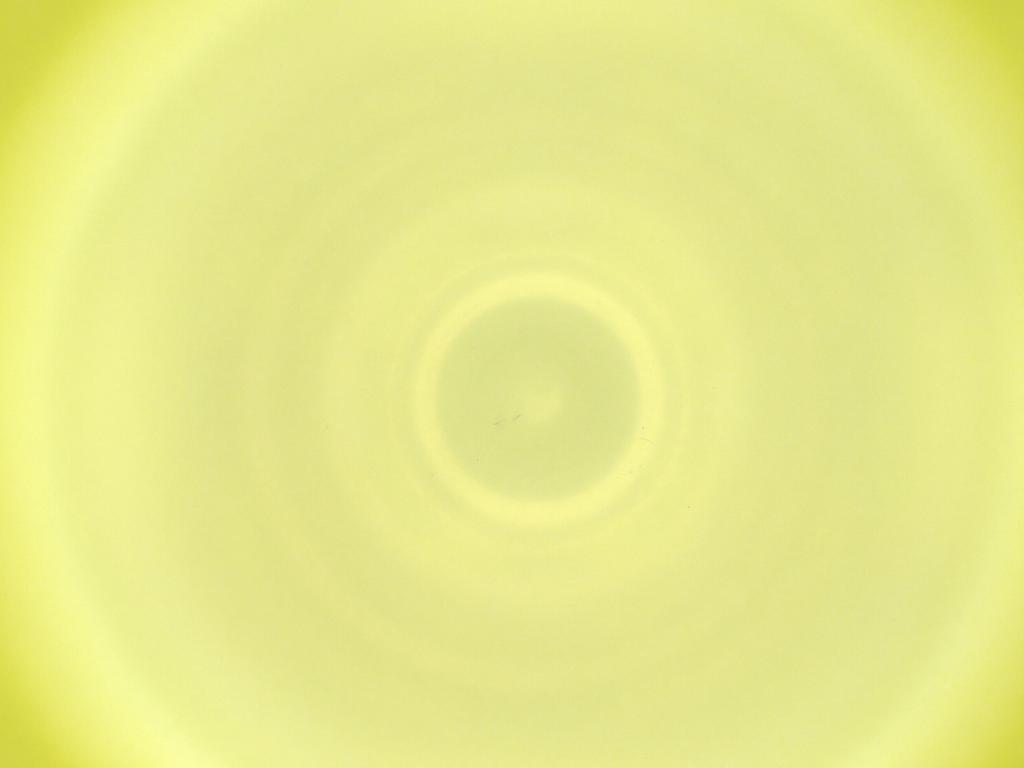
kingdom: Animalia
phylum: Arthropoda
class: Insecta
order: Diptera
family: Cecidomyiidae
